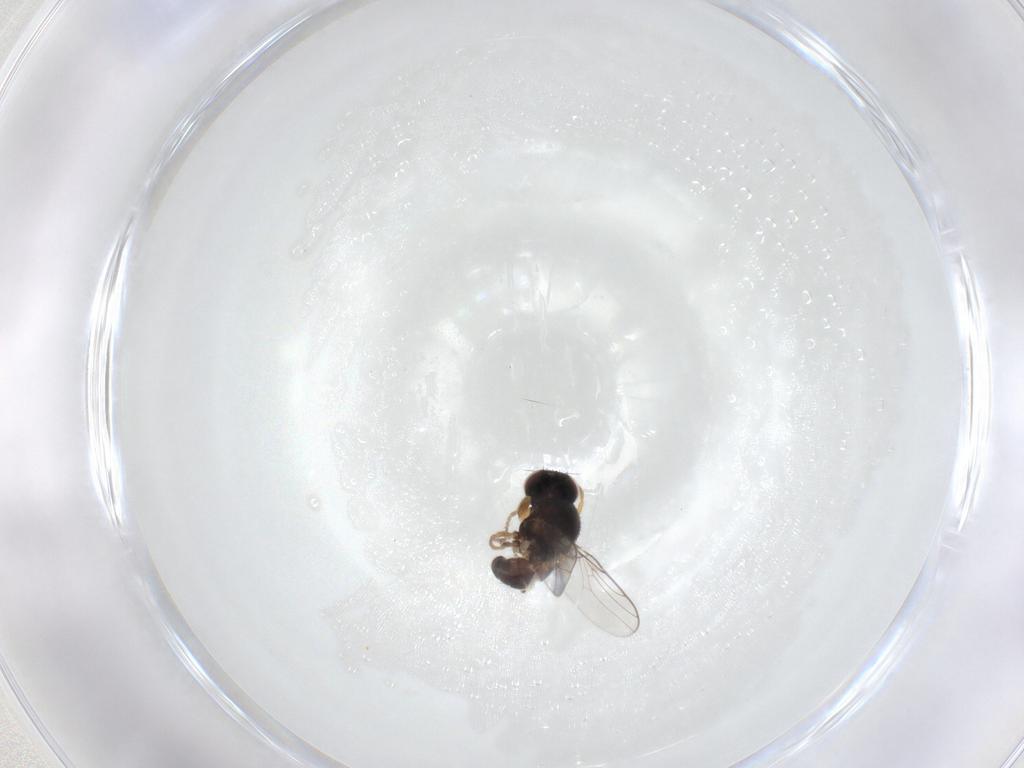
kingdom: Animalia
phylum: Arthropoda
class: Insecta
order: Diptera
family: Chloropidae
